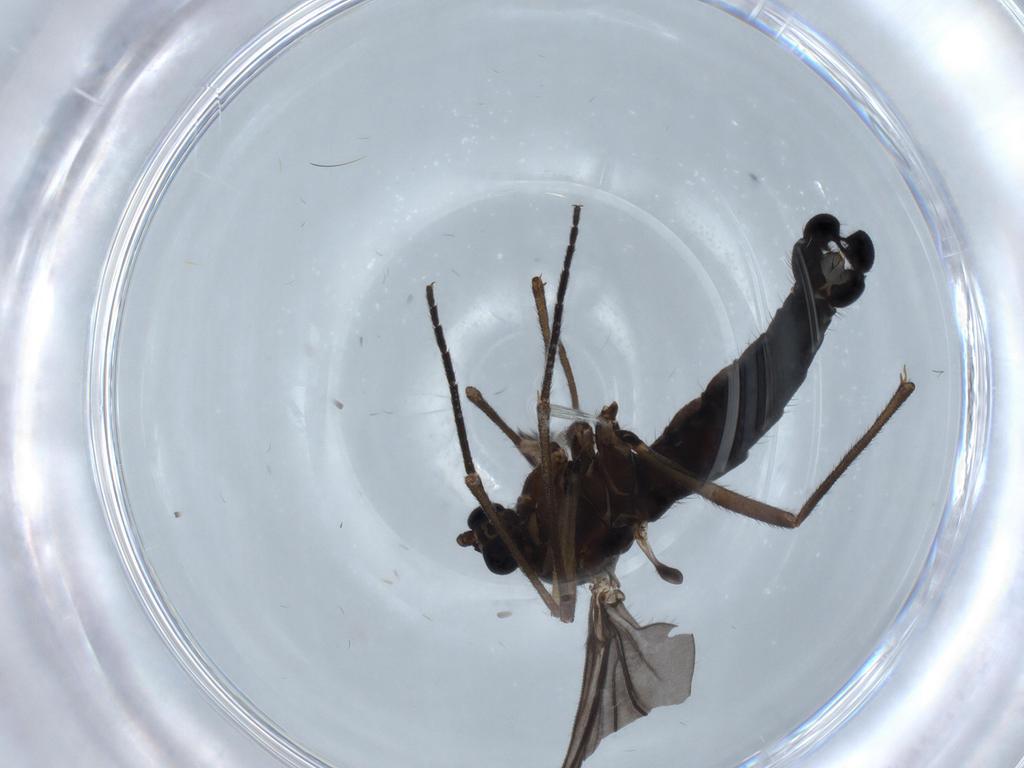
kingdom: Animalia
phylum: Arthropoda
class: Insecta
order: Diptera
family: Sciaridae
